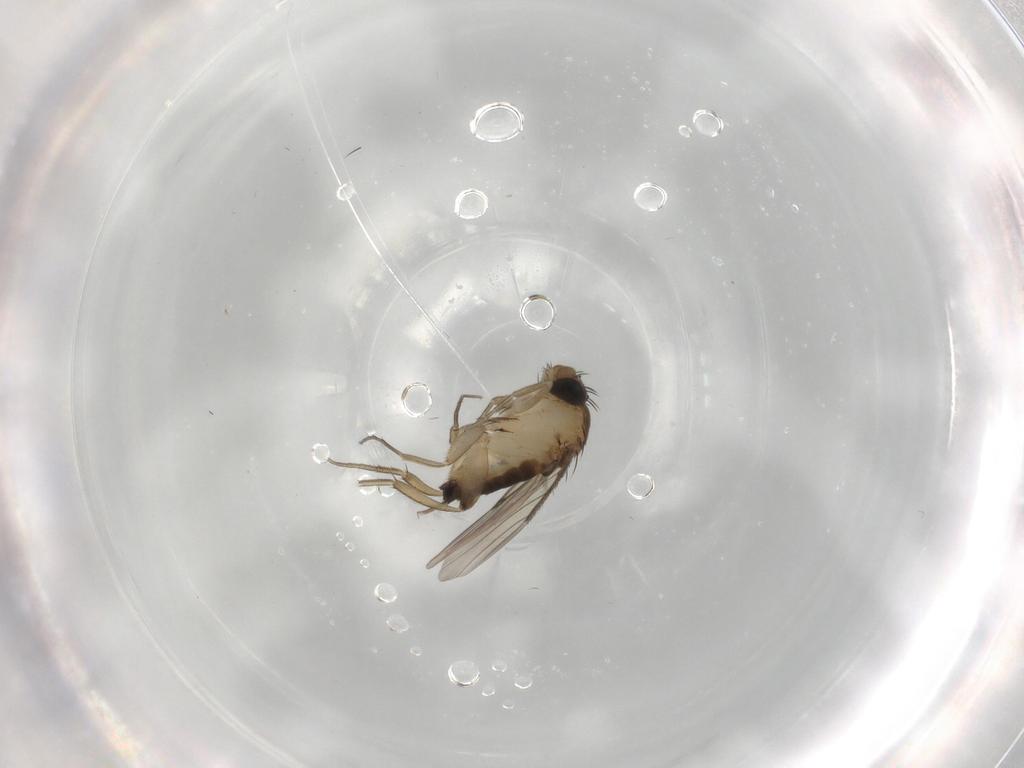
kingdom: Animalia
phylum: Arthropoda
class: Insecta
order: Diptera
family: Phoridae
